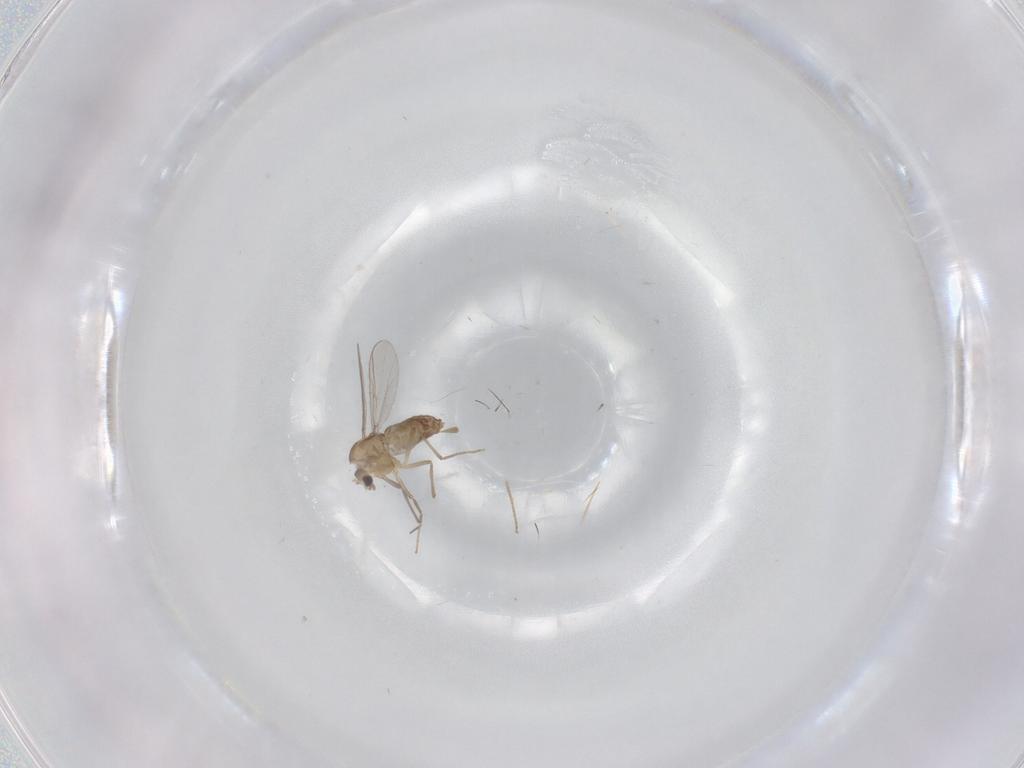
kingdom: Animalia
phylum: Arthropoda
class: Insecta
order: Diptera
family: Chironomidae
